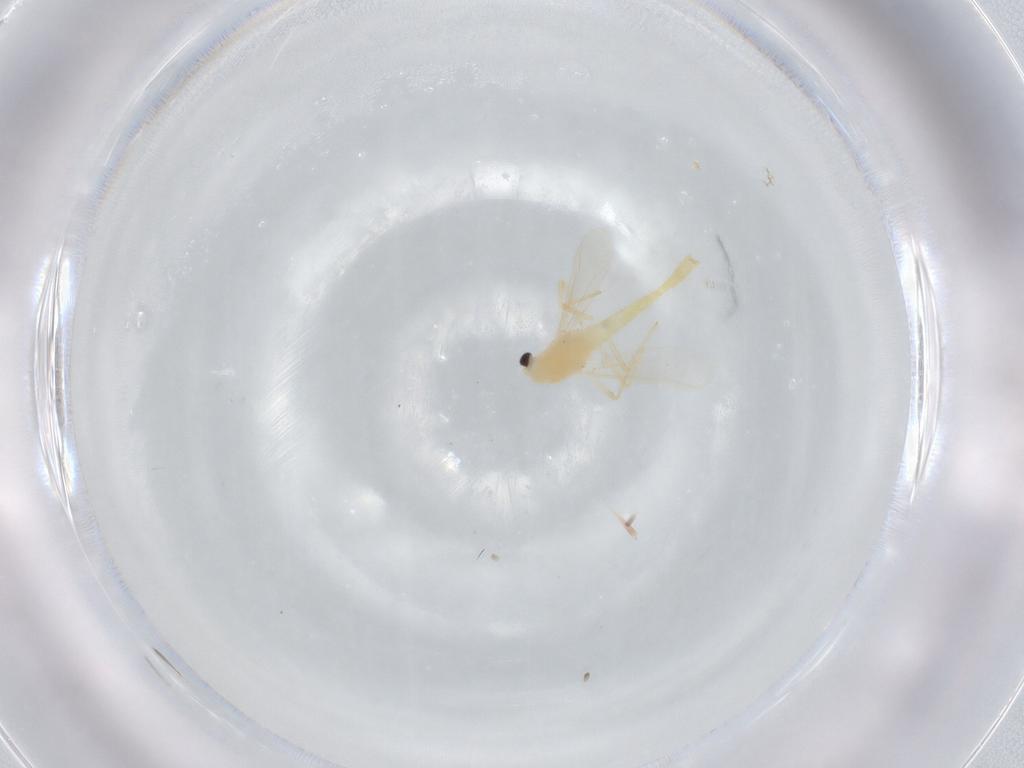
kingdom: Animalia
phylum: Arthropoda
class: Insecta
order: Diptera
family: Chironomidae
